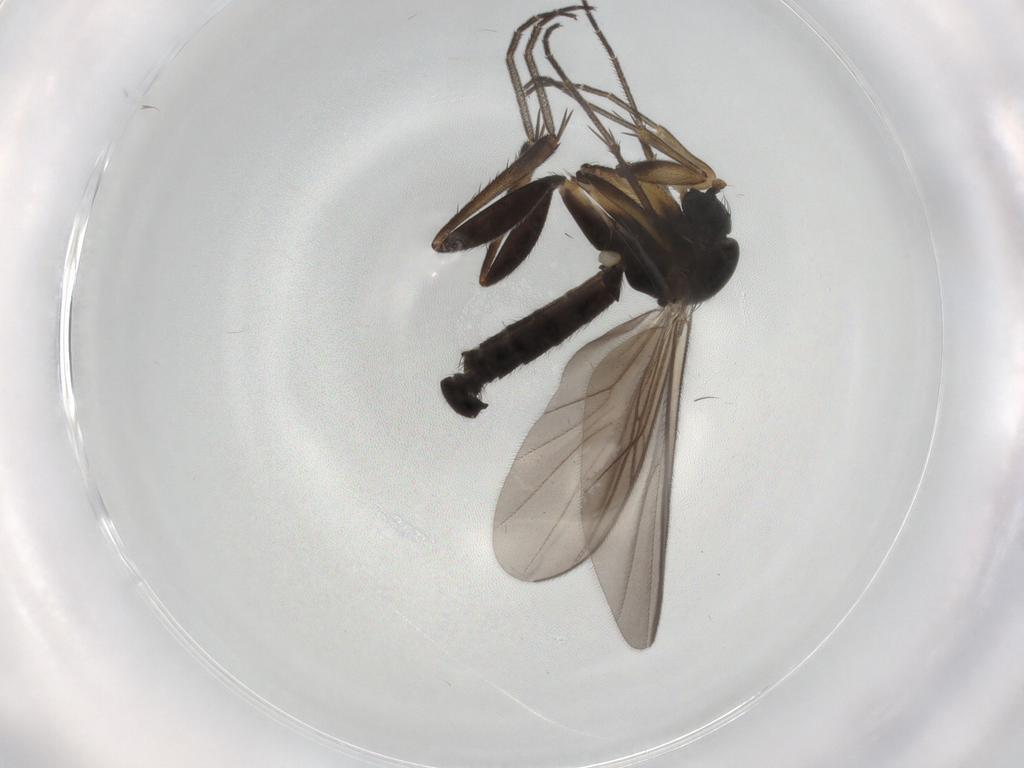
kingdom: Animalia
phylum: Arthropoda
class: Insecta
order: Diptera
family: Mycetophilidae
